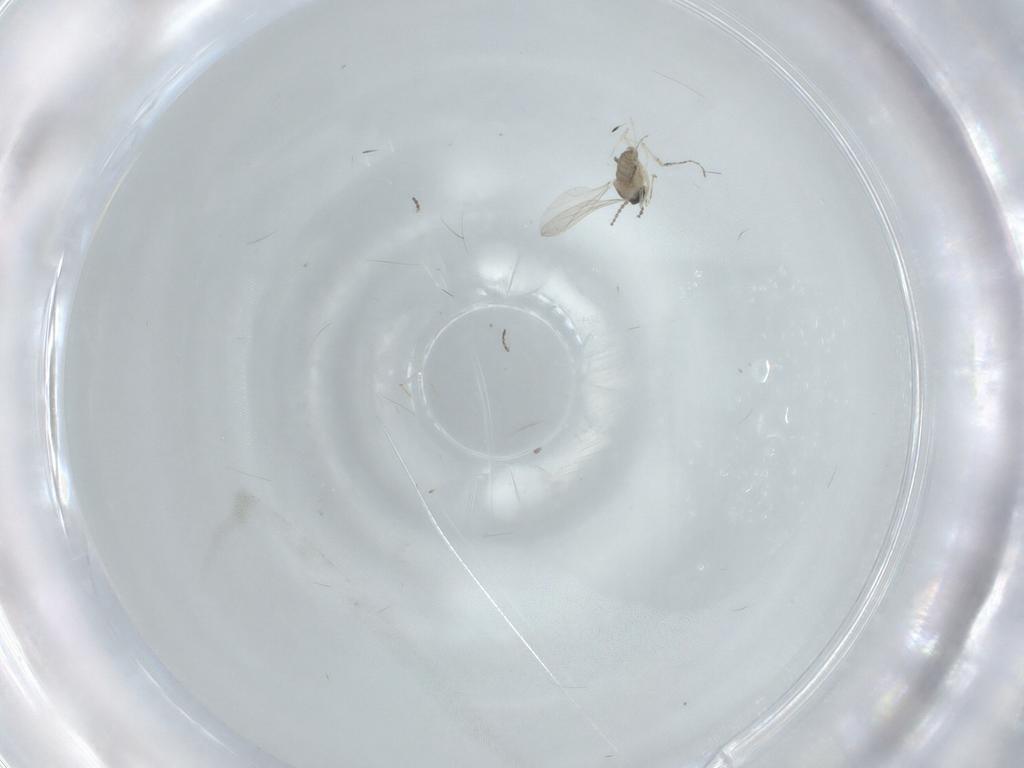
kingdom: Animalia
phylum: Arthropoda
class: Insecta
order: Diptera
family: Cecidomyiidae
